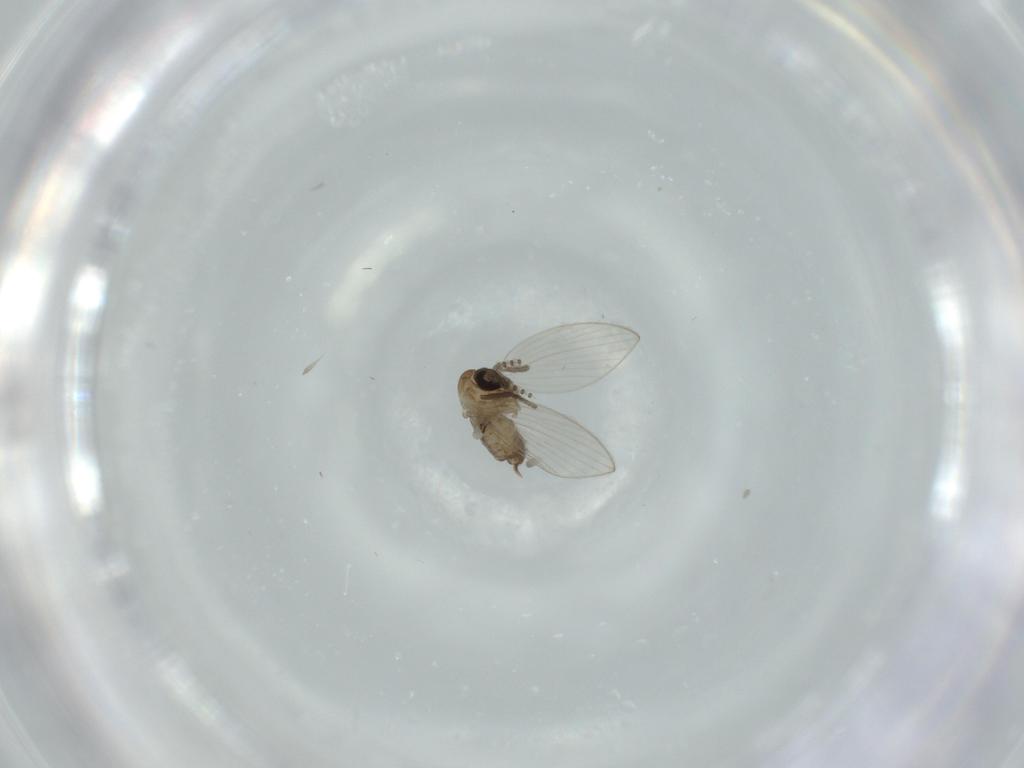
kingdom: Animalia
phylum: Arthropoda
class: Insecta
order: Diptera
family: Psychodidae
